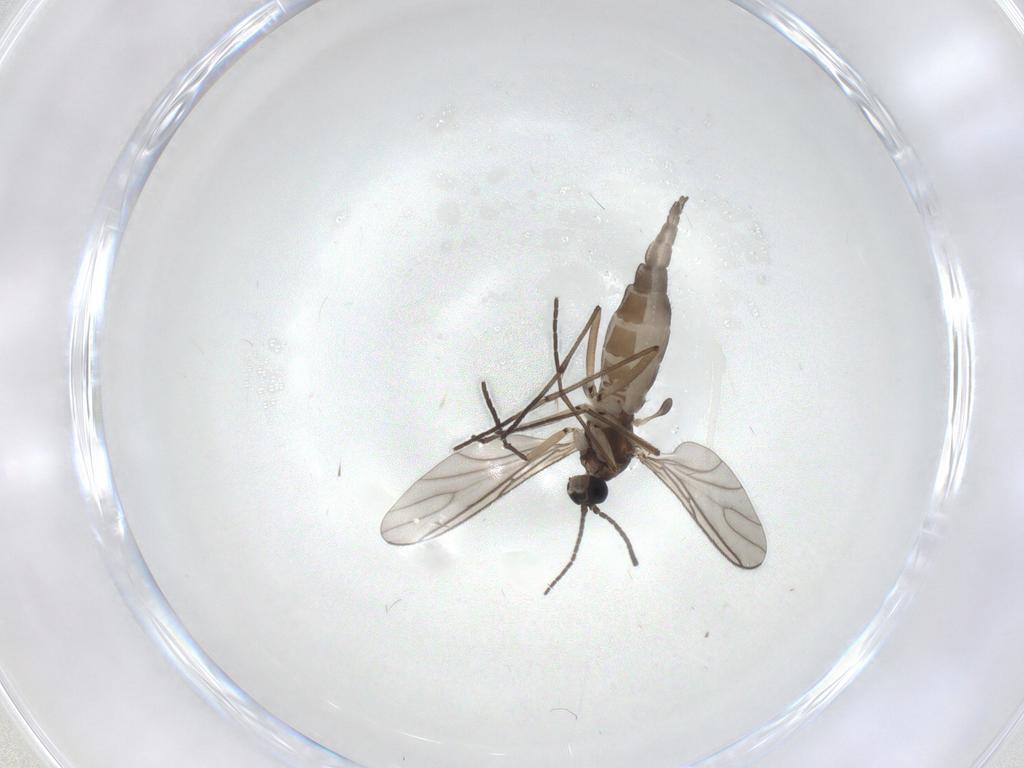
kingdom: Animalia
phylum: Arthropoda
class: Insecta
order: Diptera
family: Sciaridae
